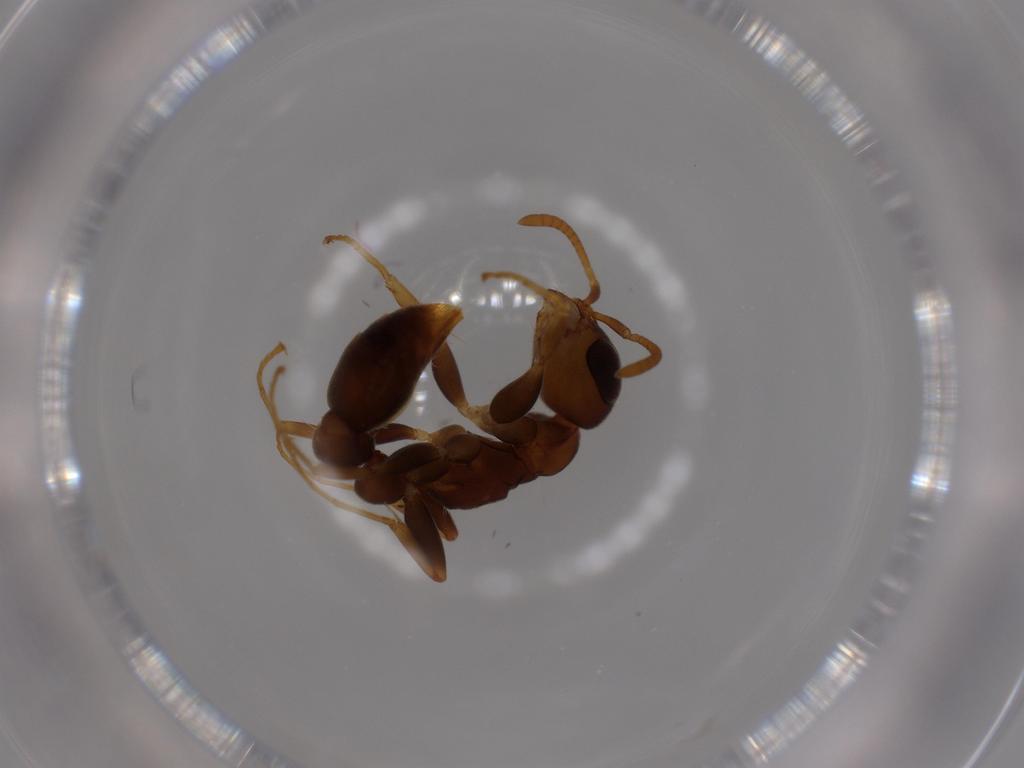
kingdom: Animalia
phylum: Arthropoda
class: Insecta
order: Hymenoptera
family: Formicidae
